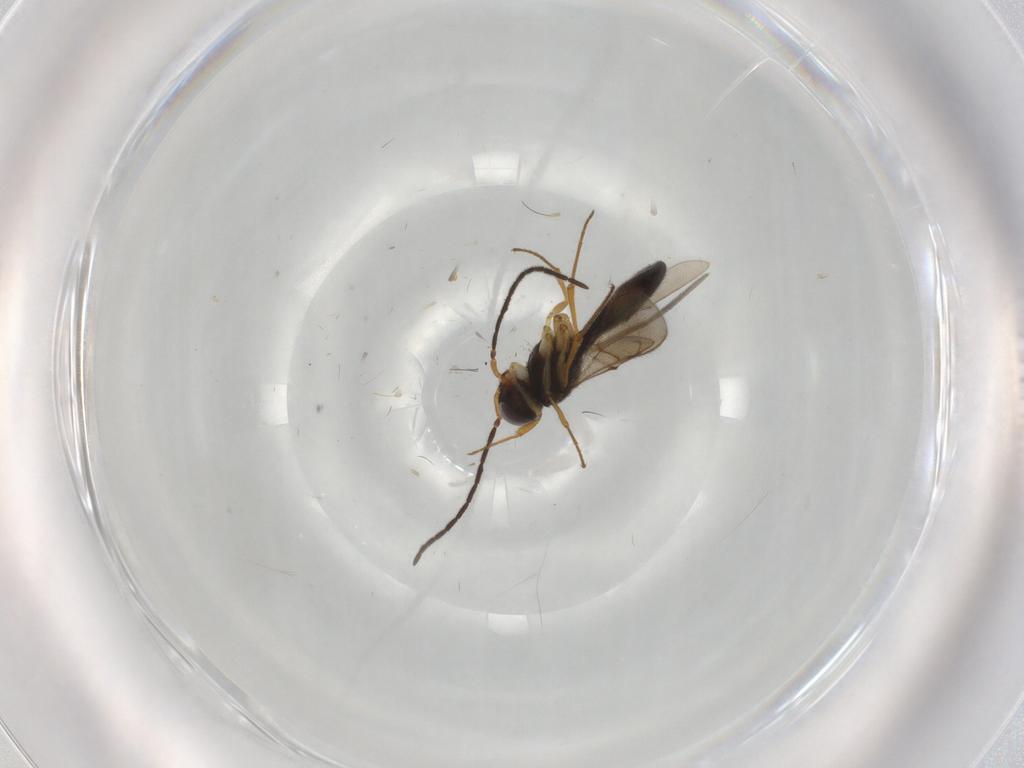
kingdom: Animalia
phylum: Arthropoda
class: Insecta
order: Hymenoptera
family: Scelionidae
